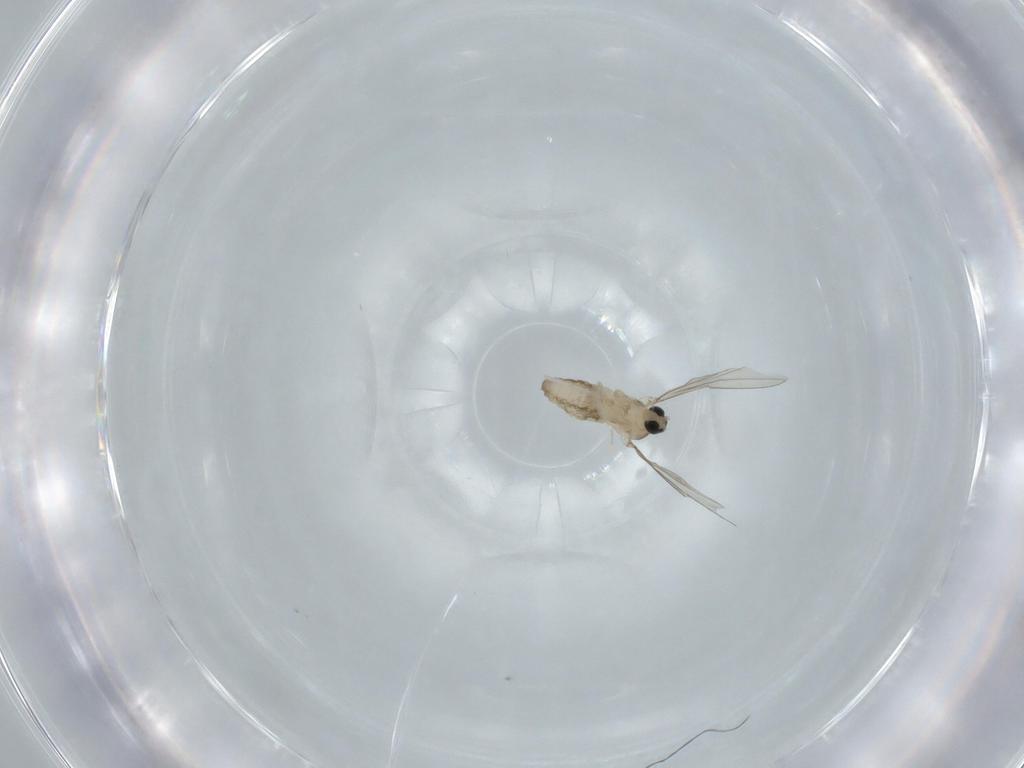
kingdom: Animalia
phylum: Arthropoda
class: Insecta
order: Diptera
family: Cecidomyiidae
